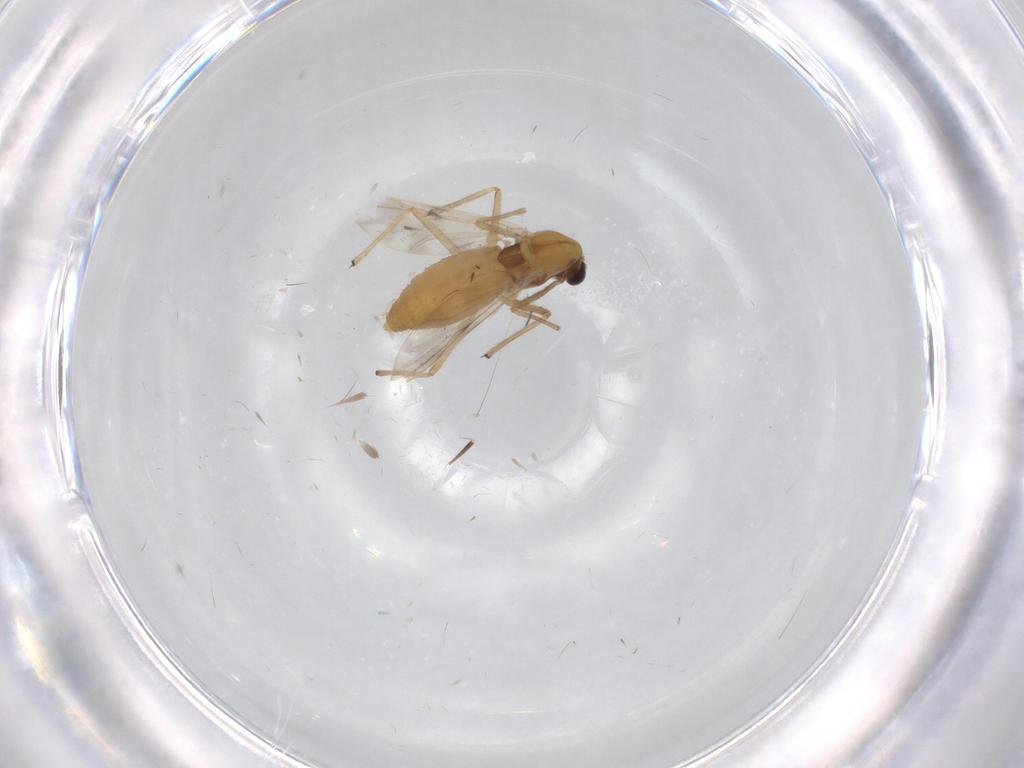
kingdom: Animalia
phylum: Arthropoda
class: Insecta
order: Diptera
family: Chironomidae
